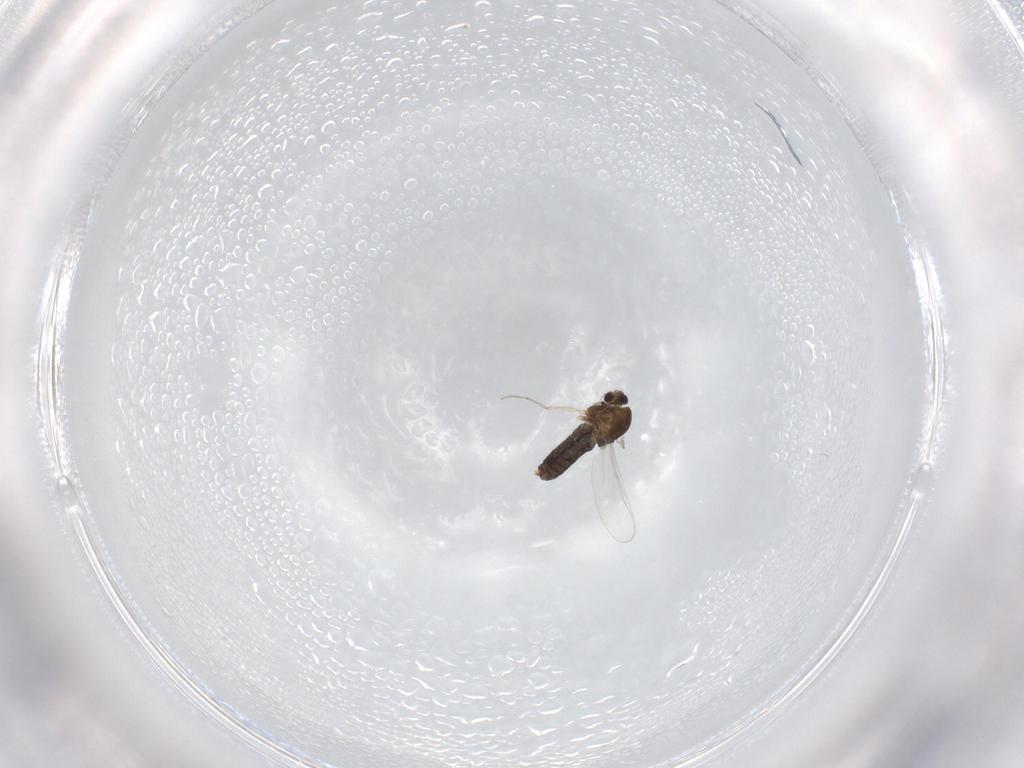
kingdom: Animalia
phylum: Arthropoda
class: Insecta
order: Diptera
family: Chironomidae
